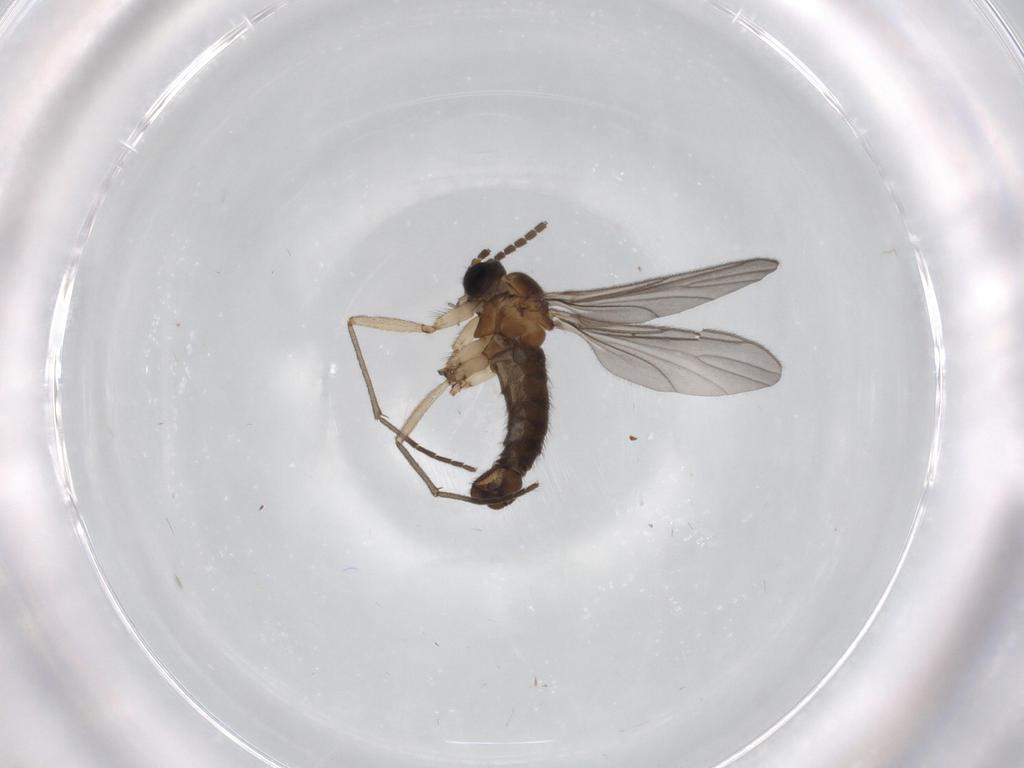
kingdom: Animalia
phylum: Arthropoda
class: Insecta
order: Diptera
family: Sciaridae
